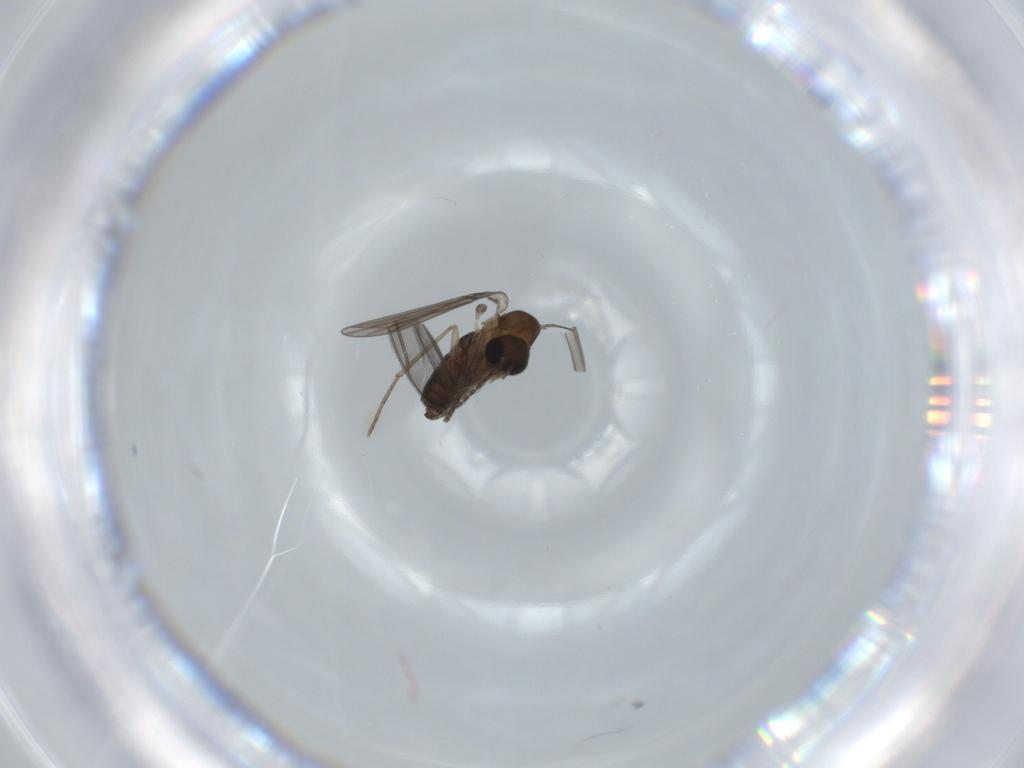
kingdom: Animalia
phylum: Arthropoda
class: Insecta
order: Diptera
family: Psychodidae
